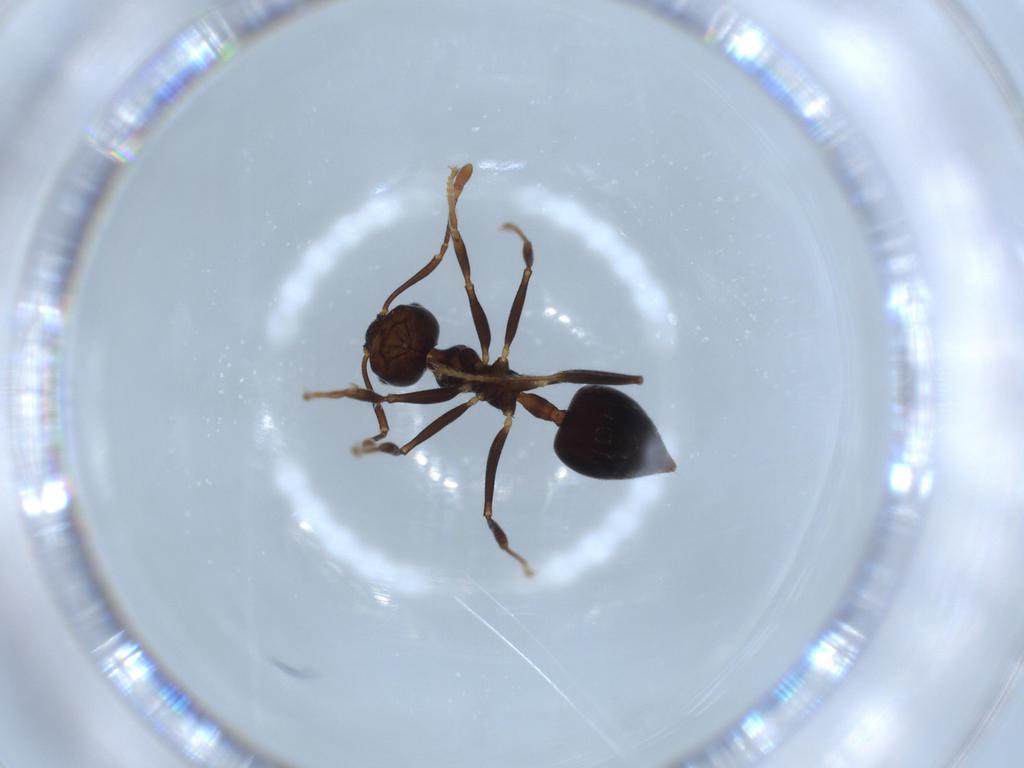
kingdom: Animalia
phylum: Arthropoda
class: Insecta
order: Hymenoptera
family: Formicidae
